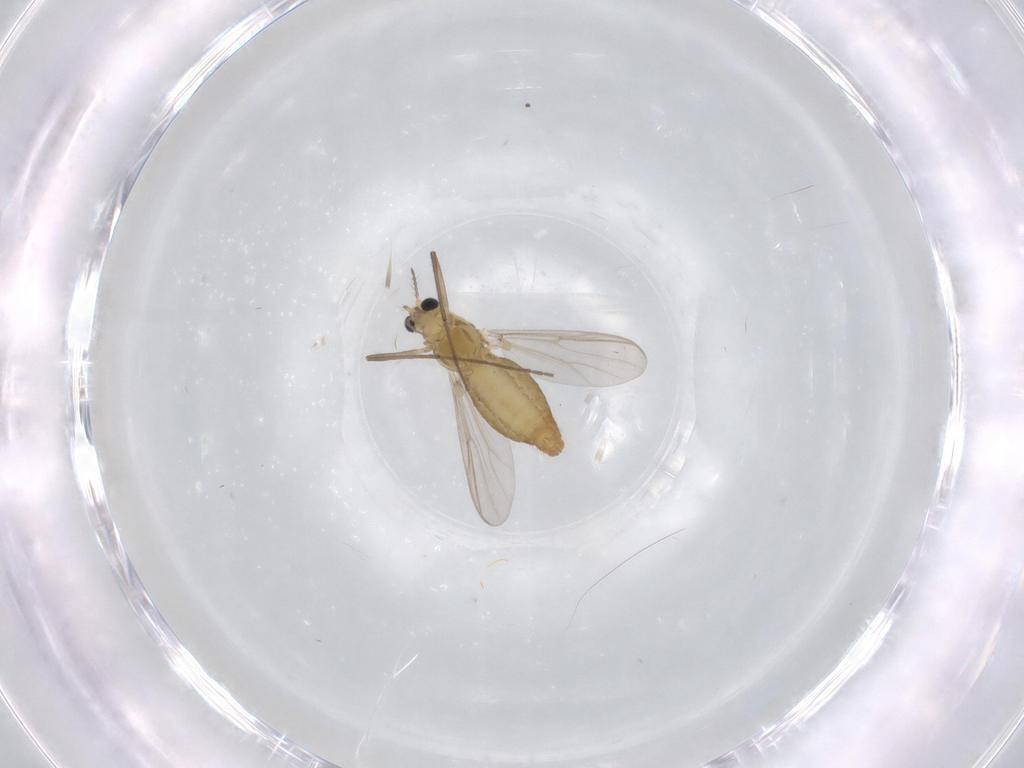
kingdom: Animalia
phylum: Arthropoda
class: Insecta
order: Diptera
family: Chironomidae
